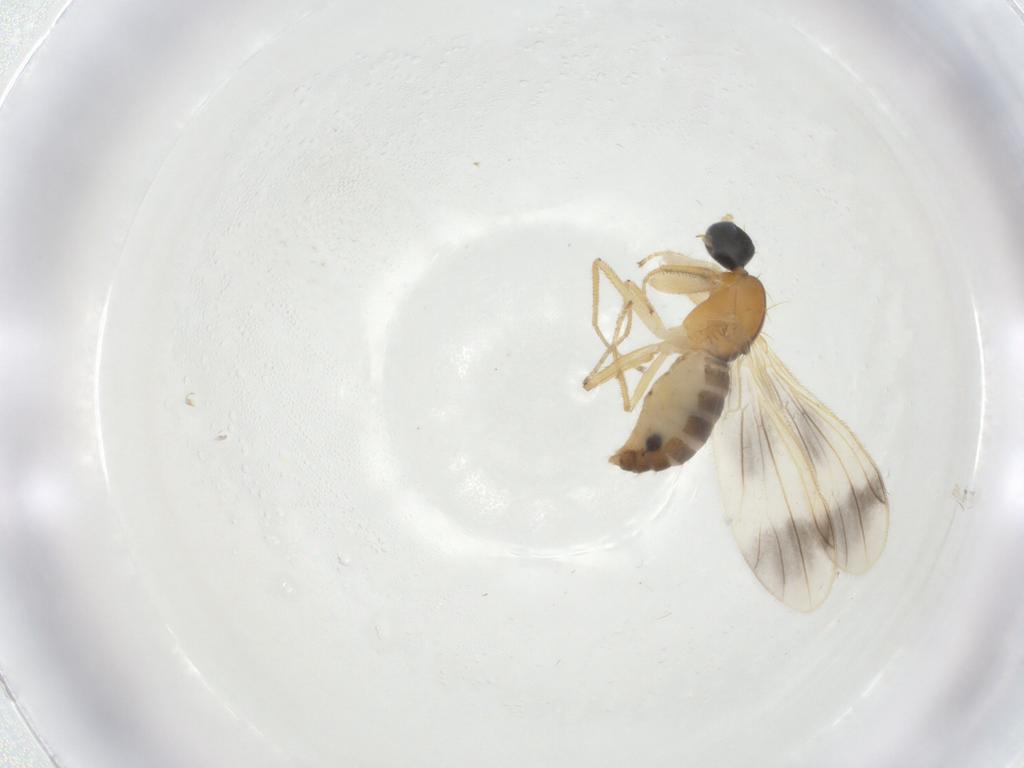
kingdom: Animalia
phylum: Arthropoda
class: Insecta
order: Diptera
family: Empididae
